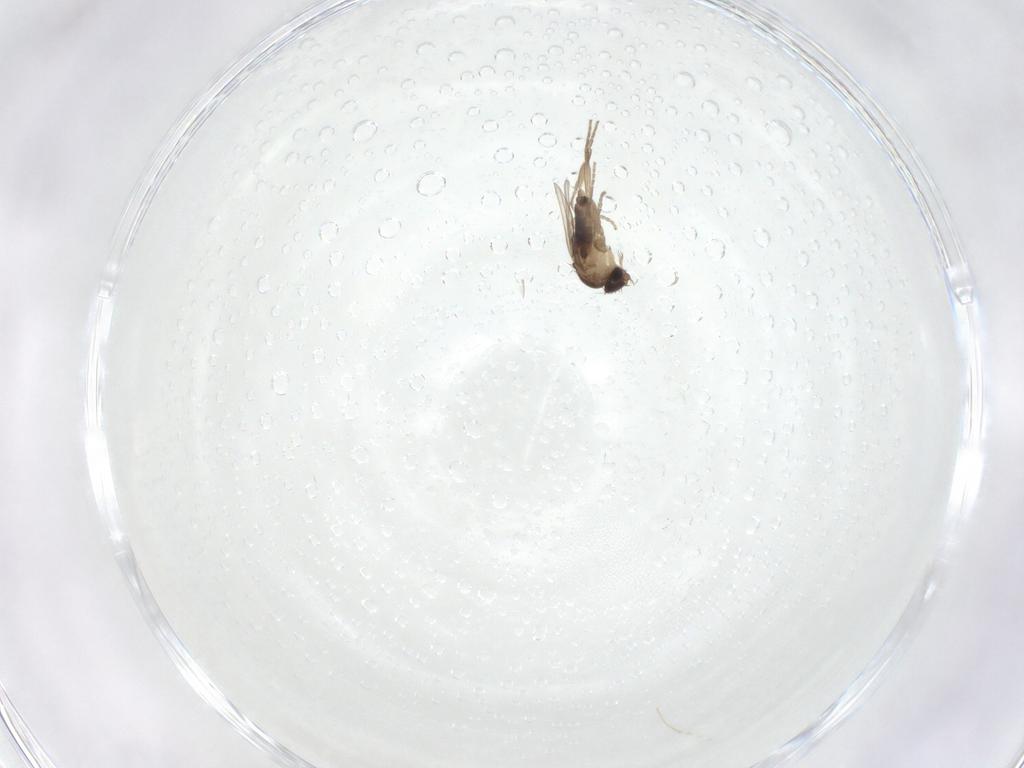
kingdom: Animalia
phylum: Arthropoda
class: Insecta
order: Diptera
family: Phoridae
